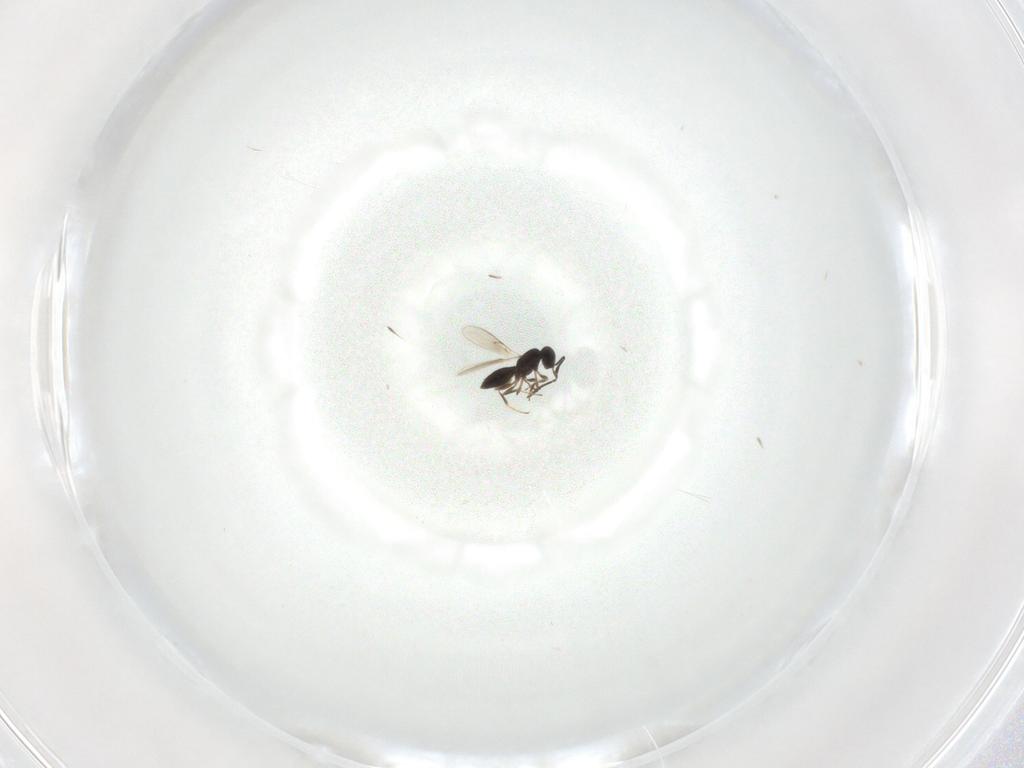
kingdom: Animalia
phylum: Arthropoda
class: Insecta
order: Hymenoptera
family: Scelionidae
